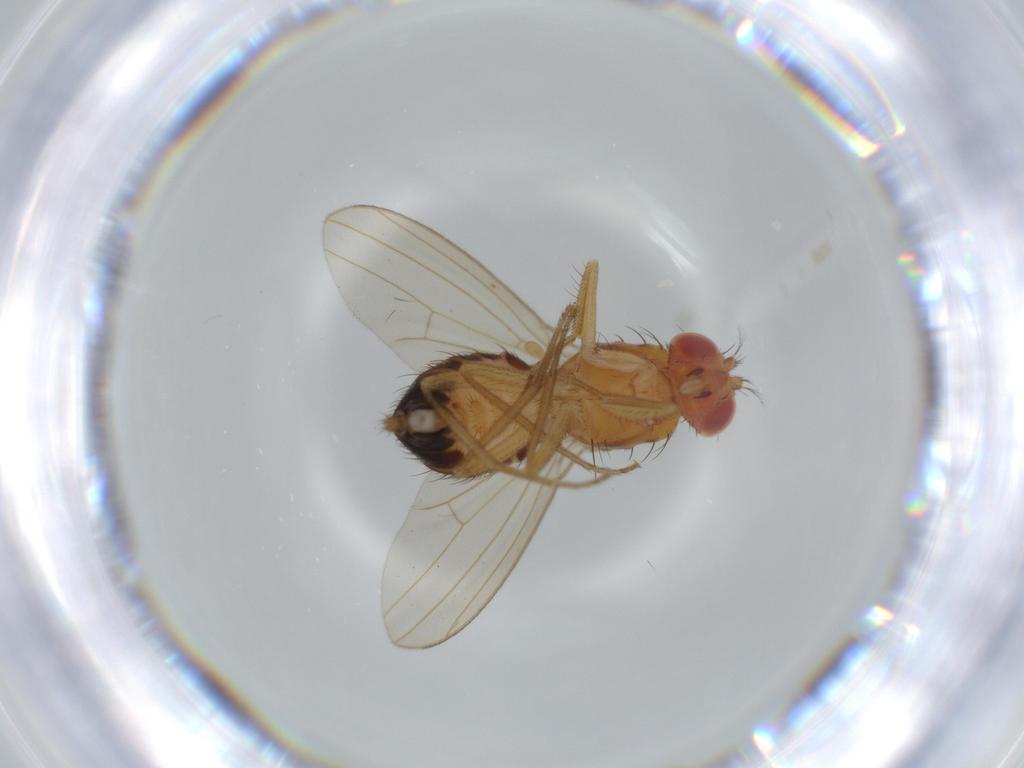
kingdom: Animalia
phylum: Arthropoda
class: Insecta
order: Diptera
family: Drosophilidae
